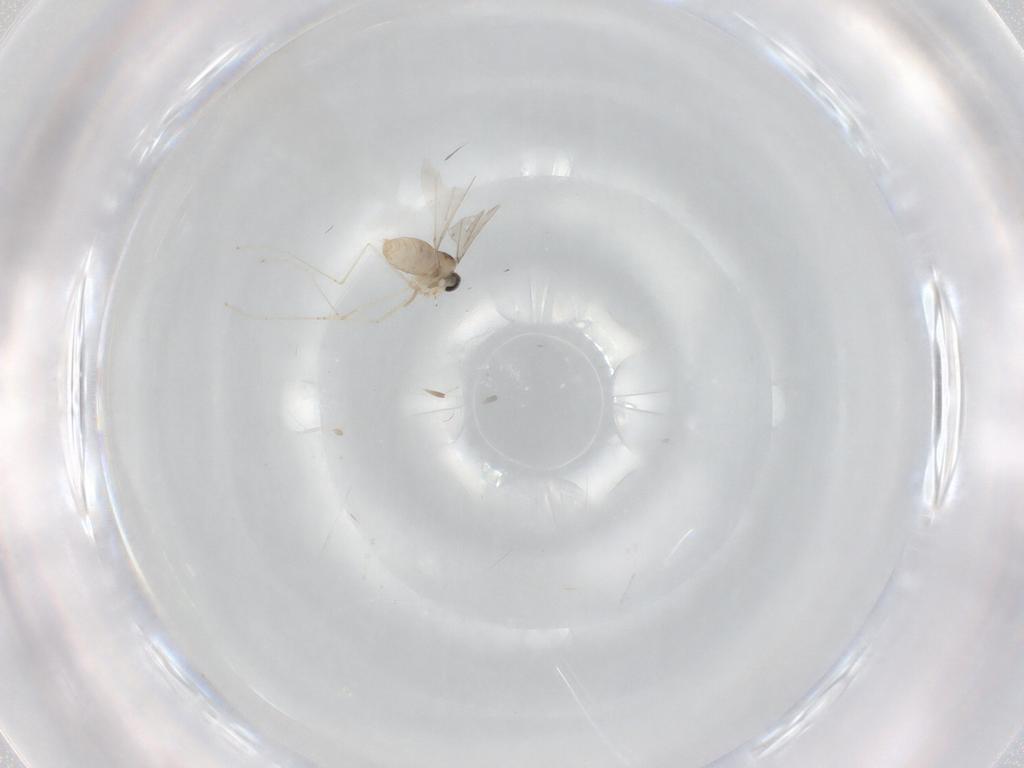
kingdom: Animalia
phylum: Arthropoda
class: Insecta
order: Diptera
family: Cecidomyiidae
